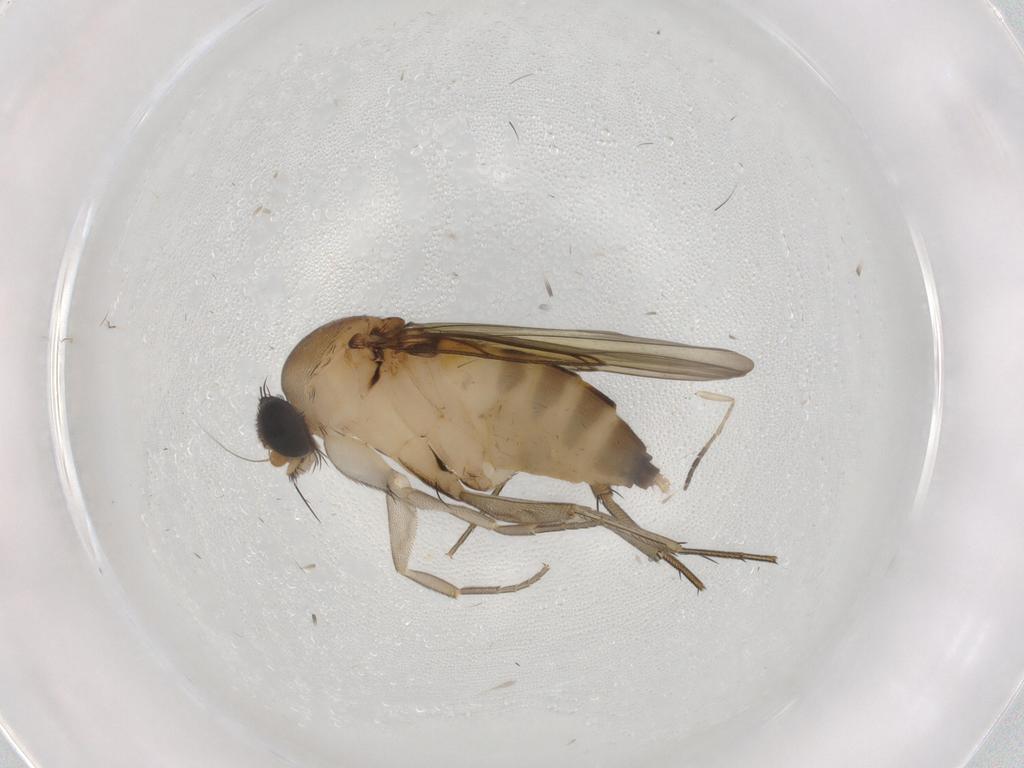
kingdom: Animalia
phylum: Arthropoda
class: Insecta
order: Diptera
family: Phoridae
